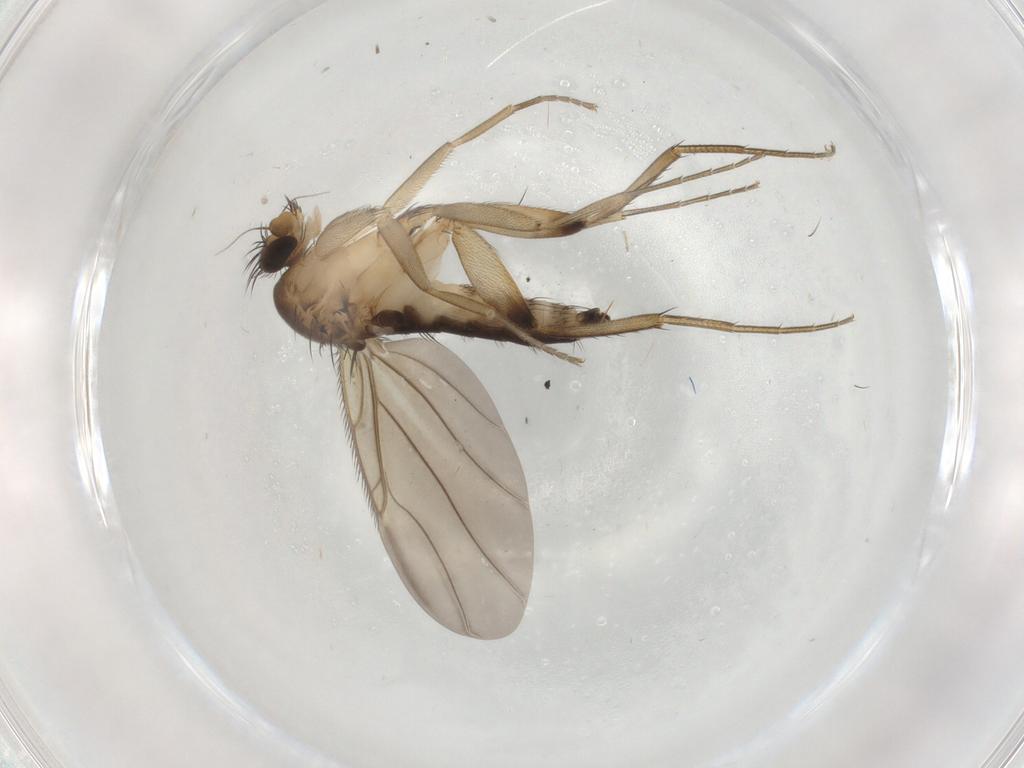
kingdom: Animalia
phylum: Arthropoda
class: Insecta
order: Diptera
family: Phoridae
